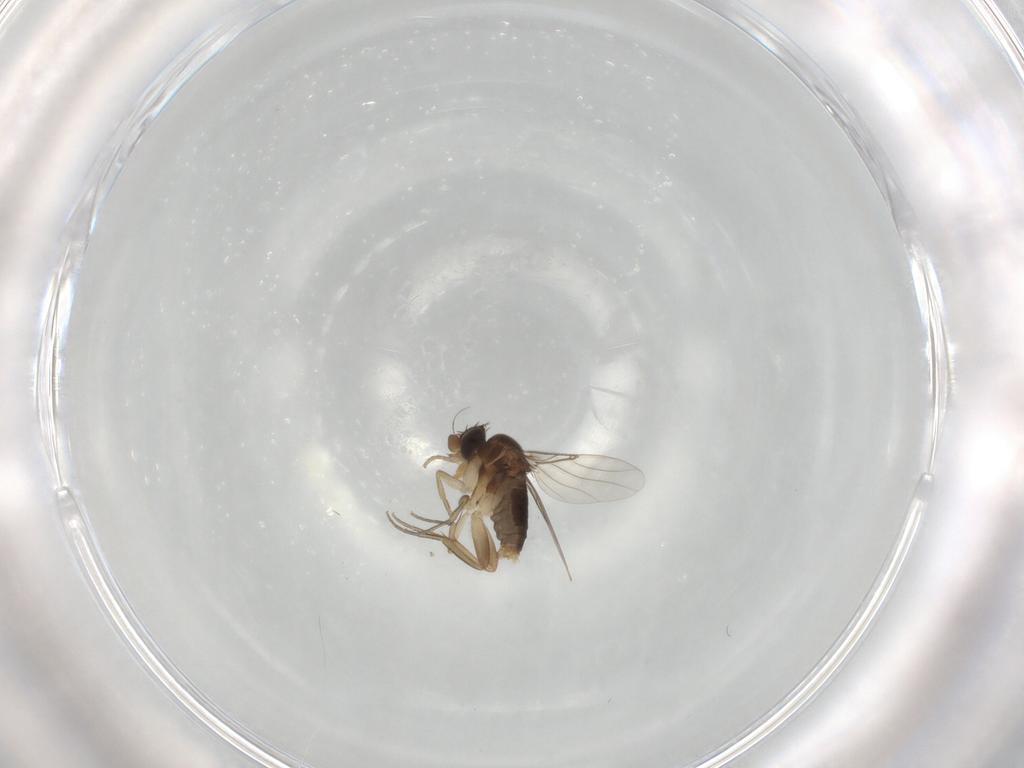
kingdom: Animalia
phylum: Arthropoda
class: Insecta
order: Diptera
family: Phoridae
